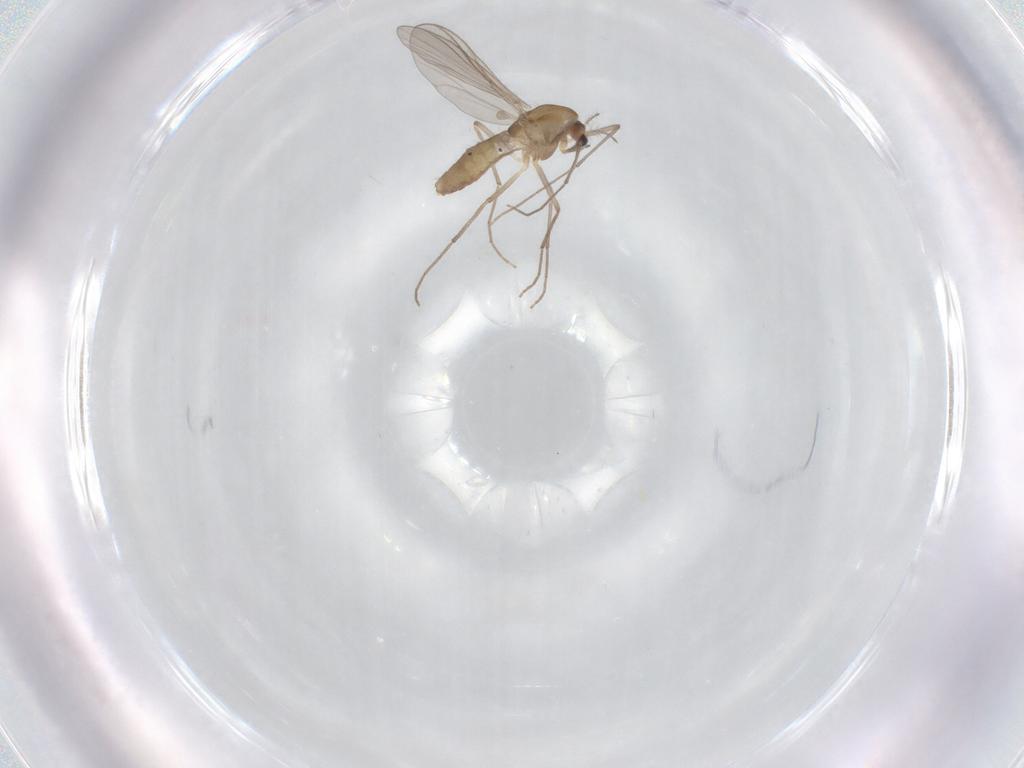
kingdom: Animalia
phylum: Arthropoda
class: Insecta
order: Diptera
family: Chironomidae
